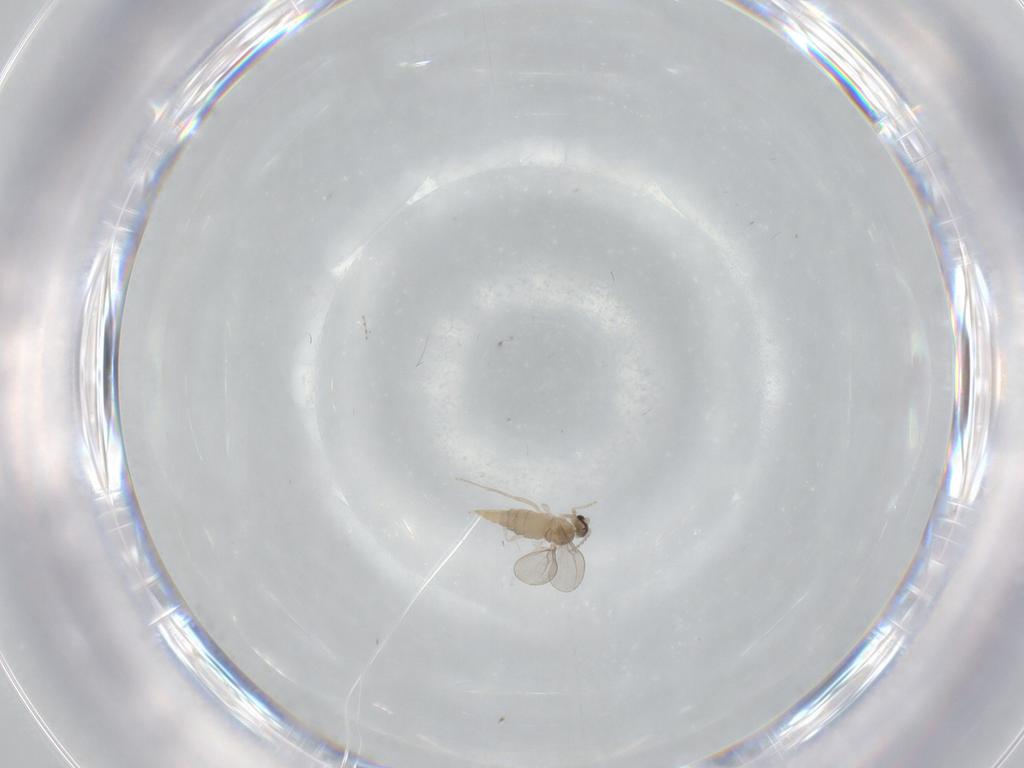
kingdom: Animalia
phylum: Arthropoda
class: Insecta
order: Diptera
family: Cecidomyiidae
